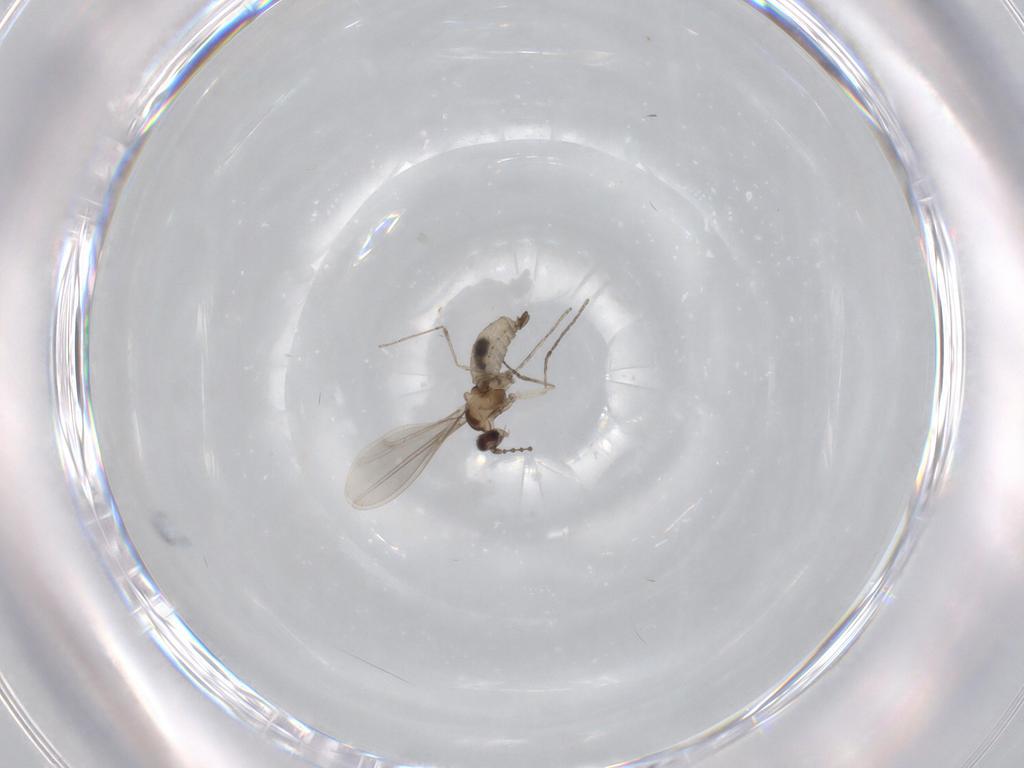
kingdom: Animalia
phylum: Arthropoda
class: Insecta
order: Diptera
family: Cecidomyiidae
